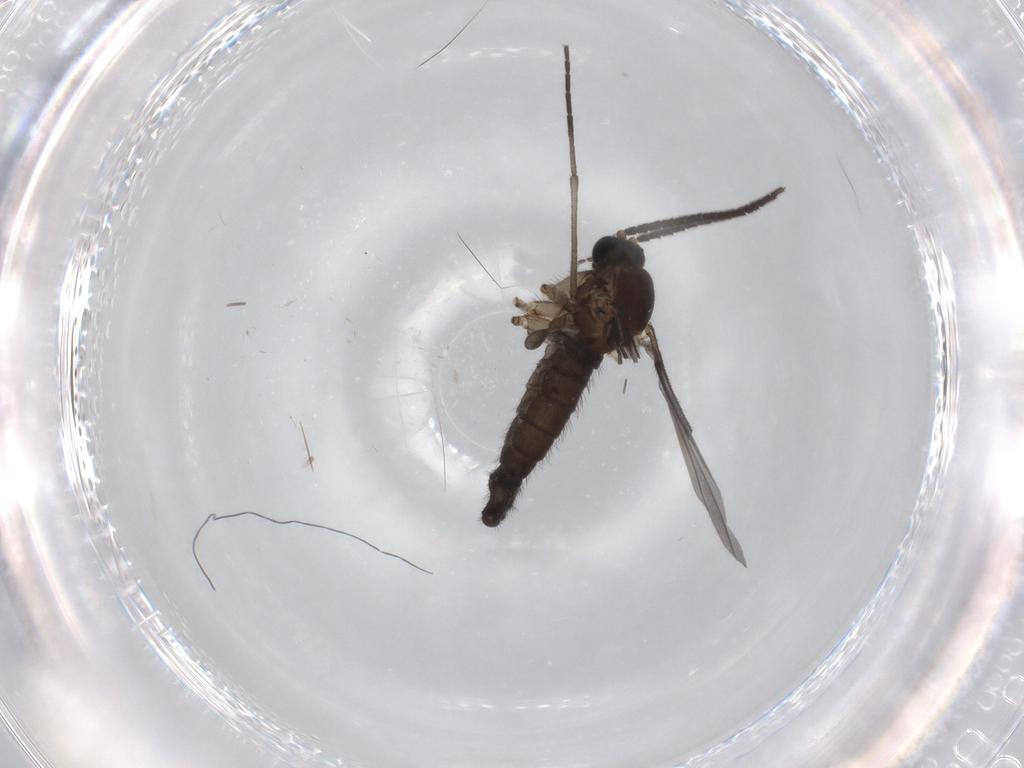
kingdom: Animalia
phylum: Arthropoda
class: Insecta
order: Diptera
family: Sciaridae
